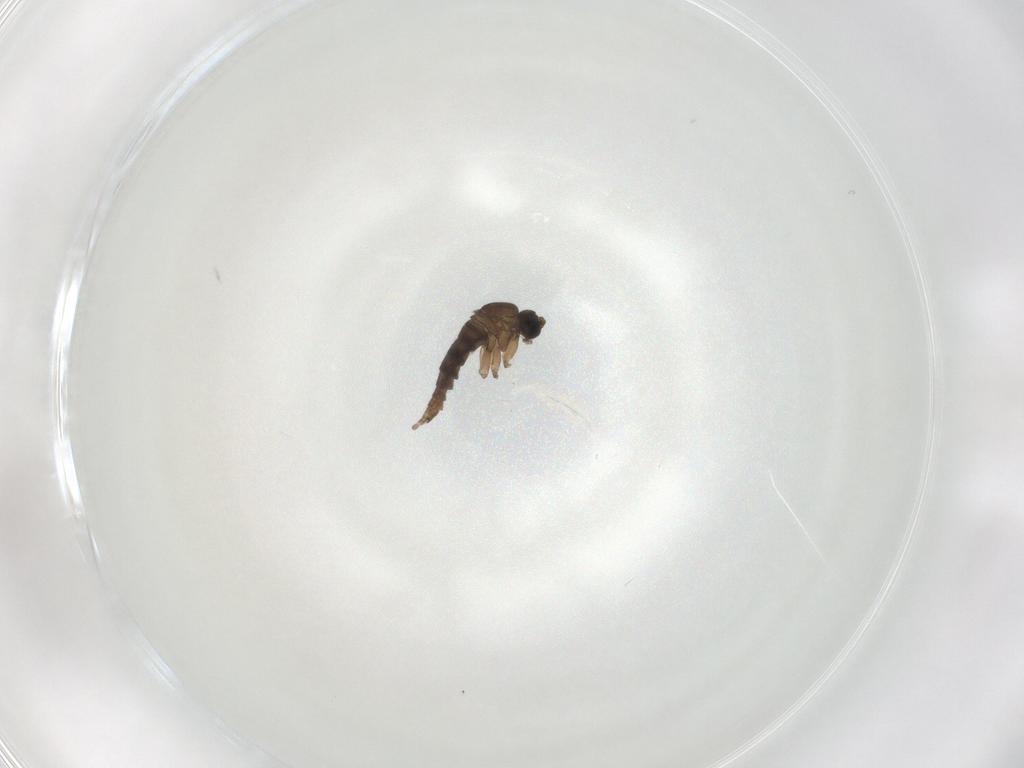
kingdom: Animalia
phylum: Arthropoda
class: Insecta
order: Diptera
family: Sciaridae
